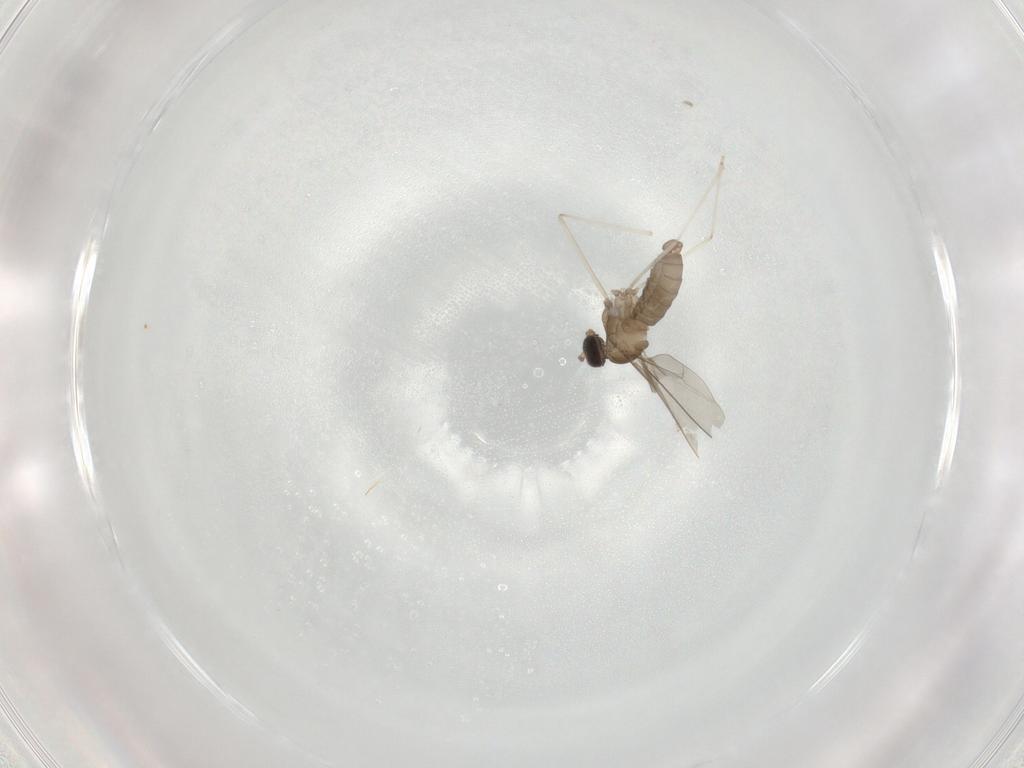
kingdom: Animalia
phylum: Arthropoda
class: Insecta
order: Diptera
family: Cecidomyiidae
